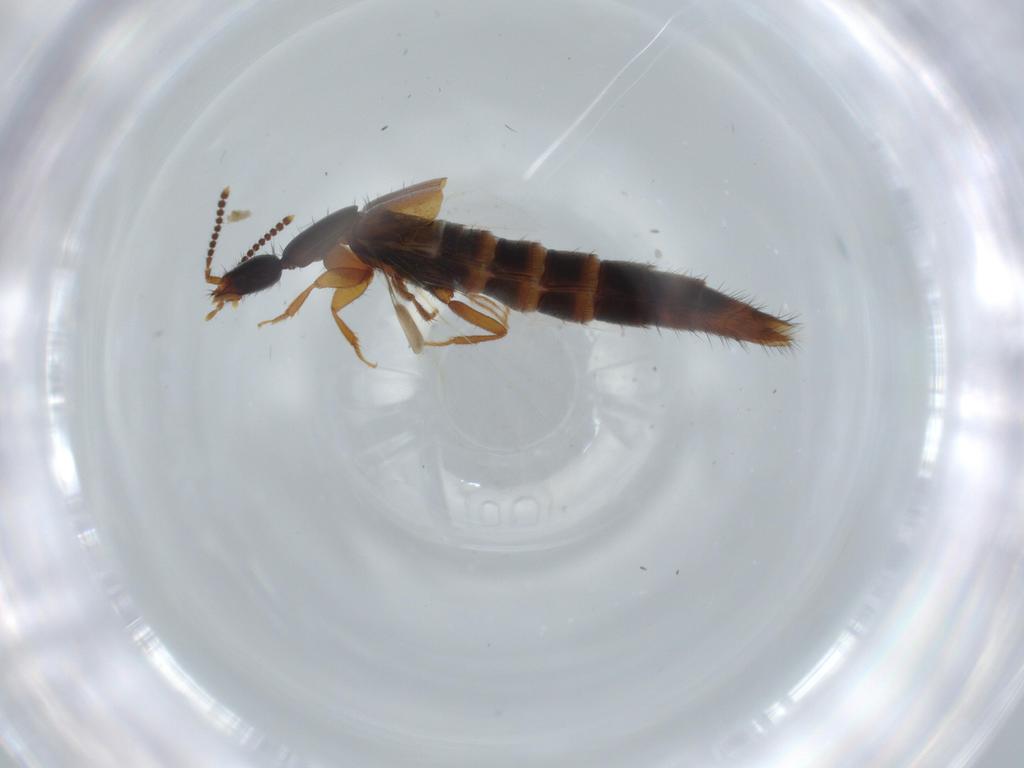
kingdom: Animalia
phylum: Arthropoda
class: Insecta
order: Coleoptera
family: Staphylinidae
